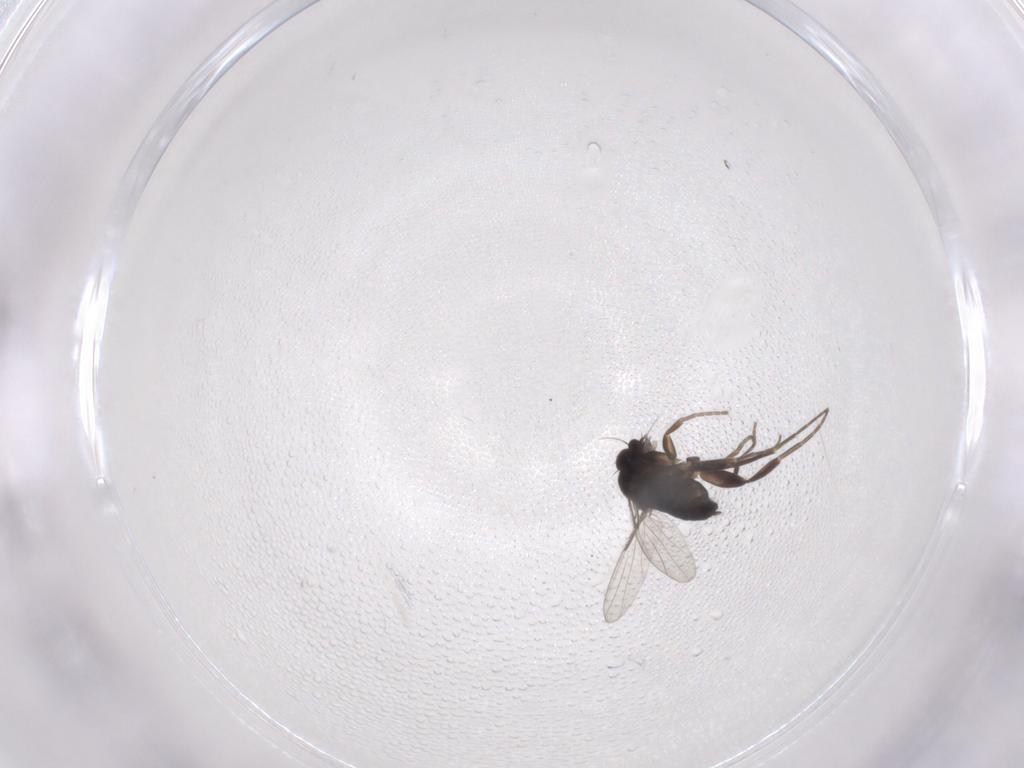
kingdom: Animalia
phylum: Arthropoda
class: Insecta
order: Diptera
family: Phoridae
